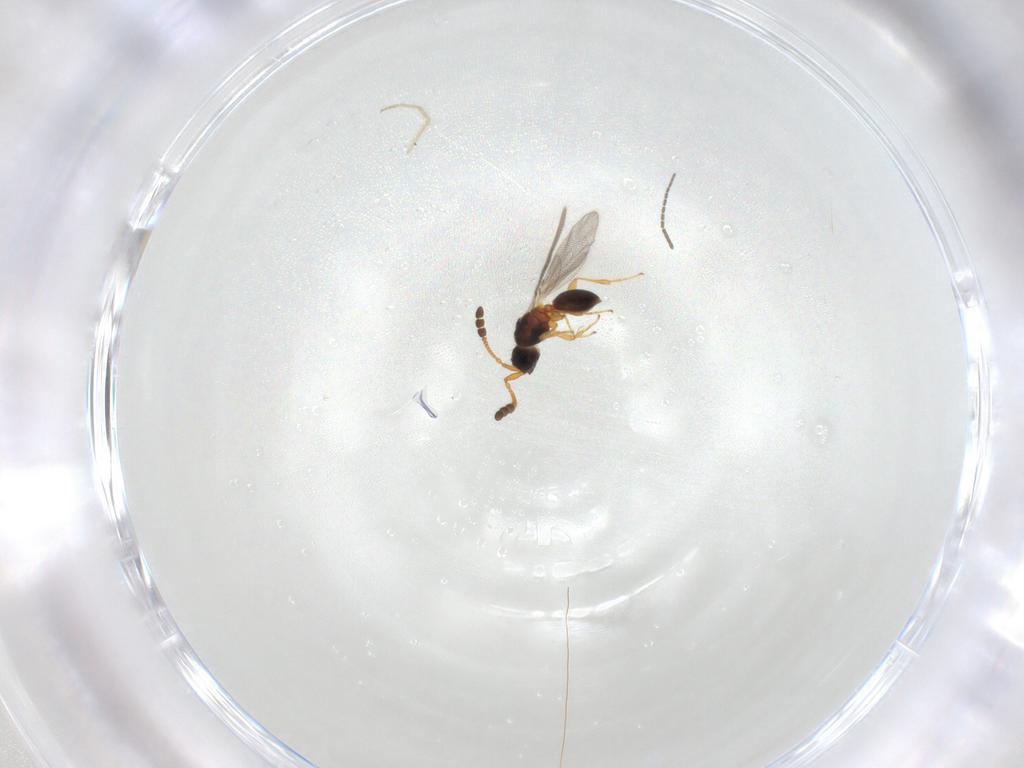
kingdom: Animalia
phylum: Arthropoda
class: Insecta
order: Hymenoptera
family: Diapriidae
